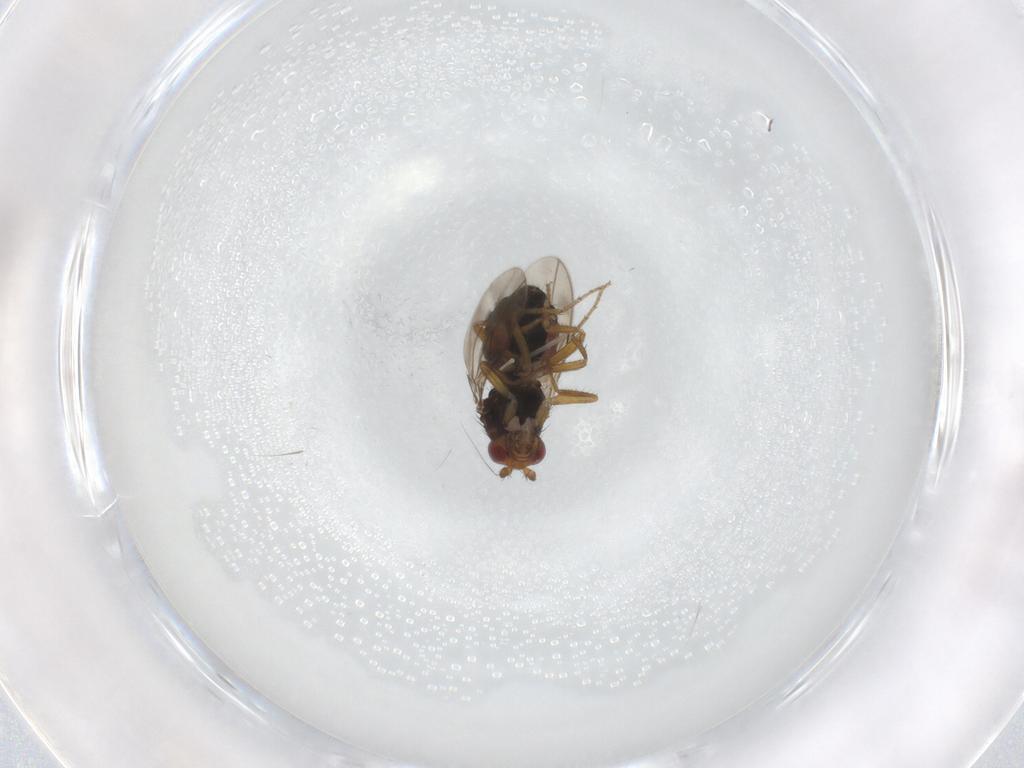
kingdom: Animalia
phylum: Arthropoda
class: Insecta
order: Diptera
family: Sphaeroceridae
